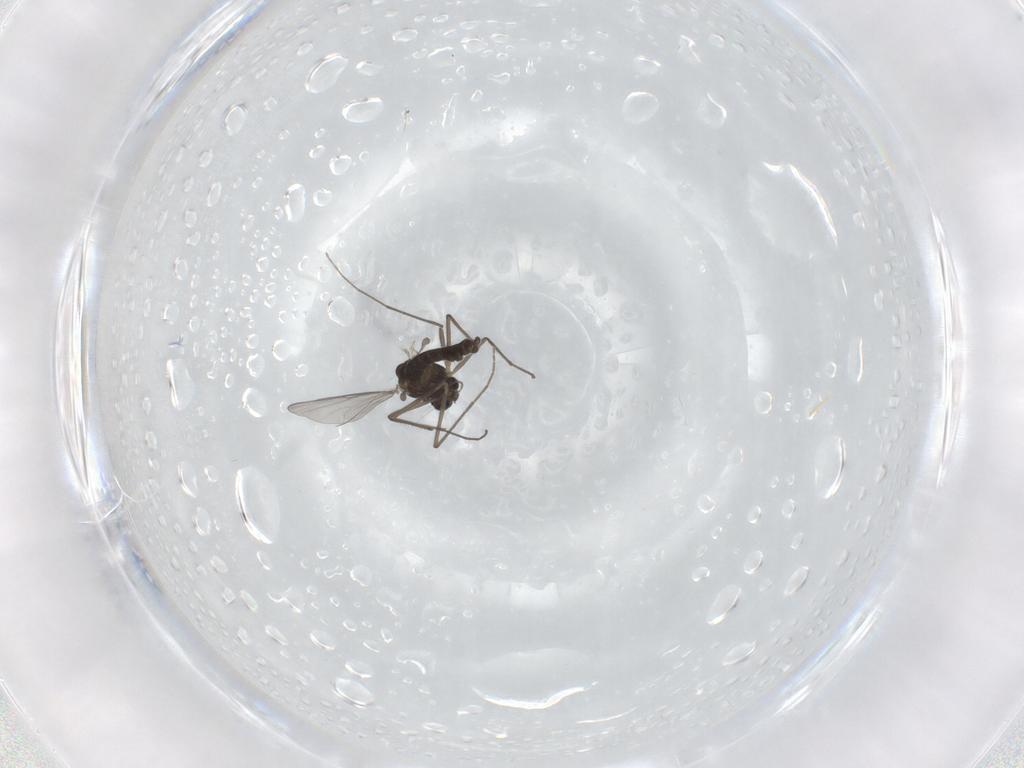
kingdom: Animalia
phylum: Arthropoda
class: Insecta
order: Diptera
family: Chironomidae
